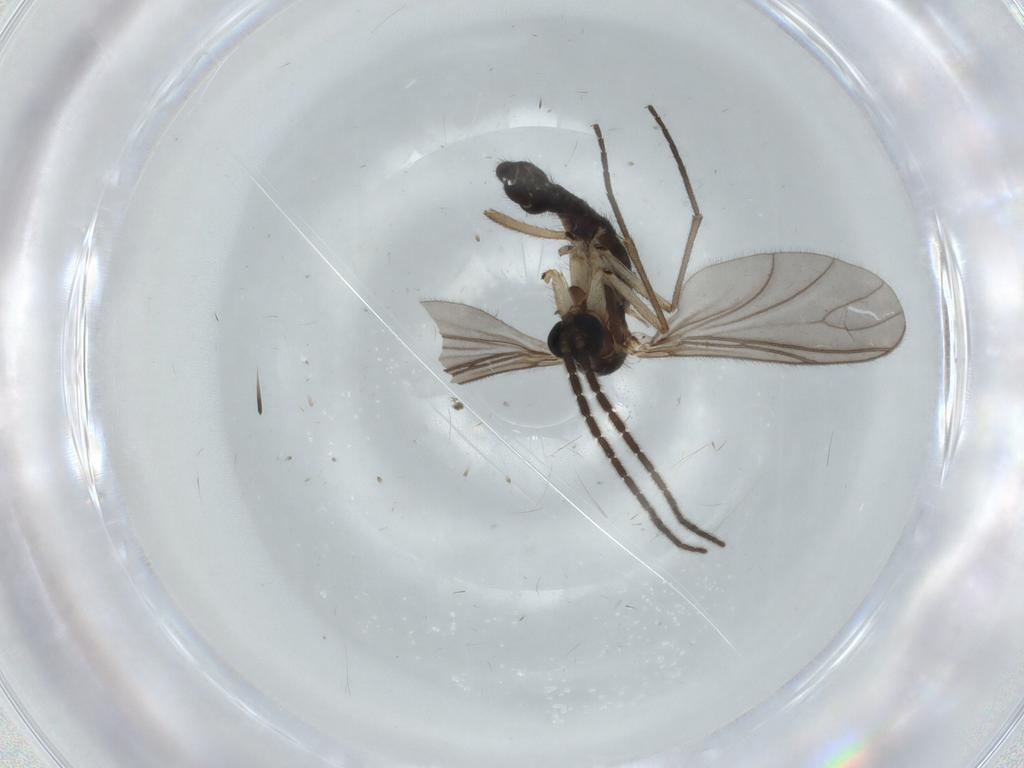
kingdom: Animalia
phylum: Arthropoda
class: Insecta
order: Diptera
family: Sciaridae
